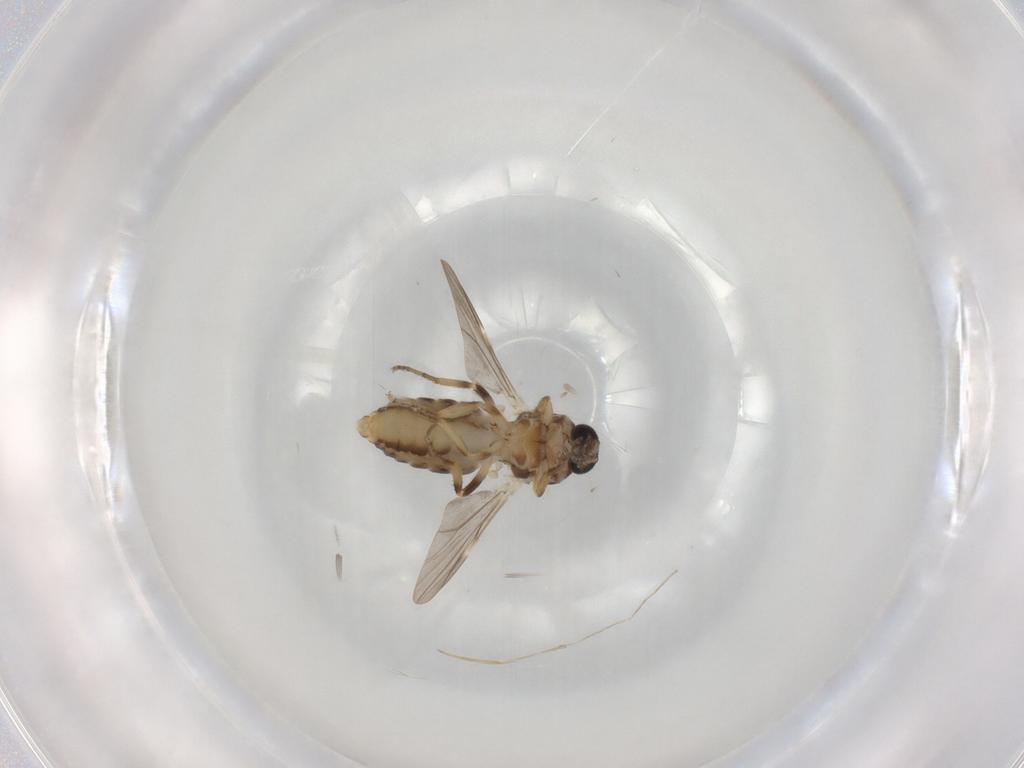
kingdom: Animalia
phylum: Arthropoda
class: Insecta
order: Diptera
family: Ceratopogonidae
